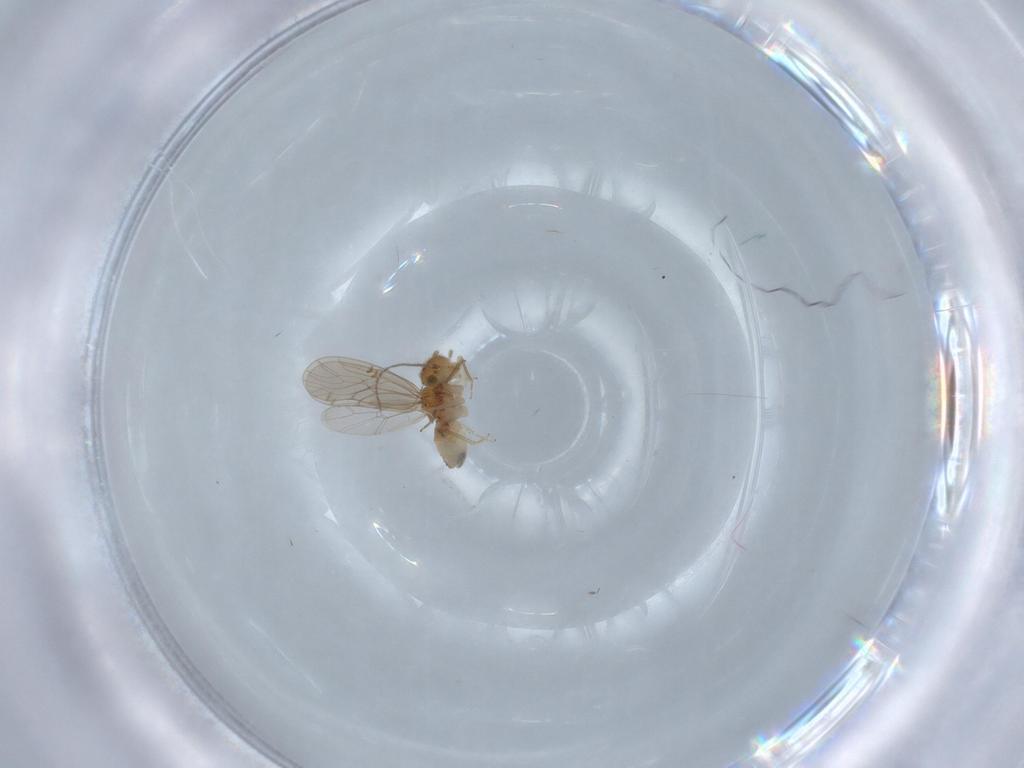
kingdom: Animalia
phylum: Arthropoda
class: Insecta
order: Psocodea
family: Ectopsocidae
